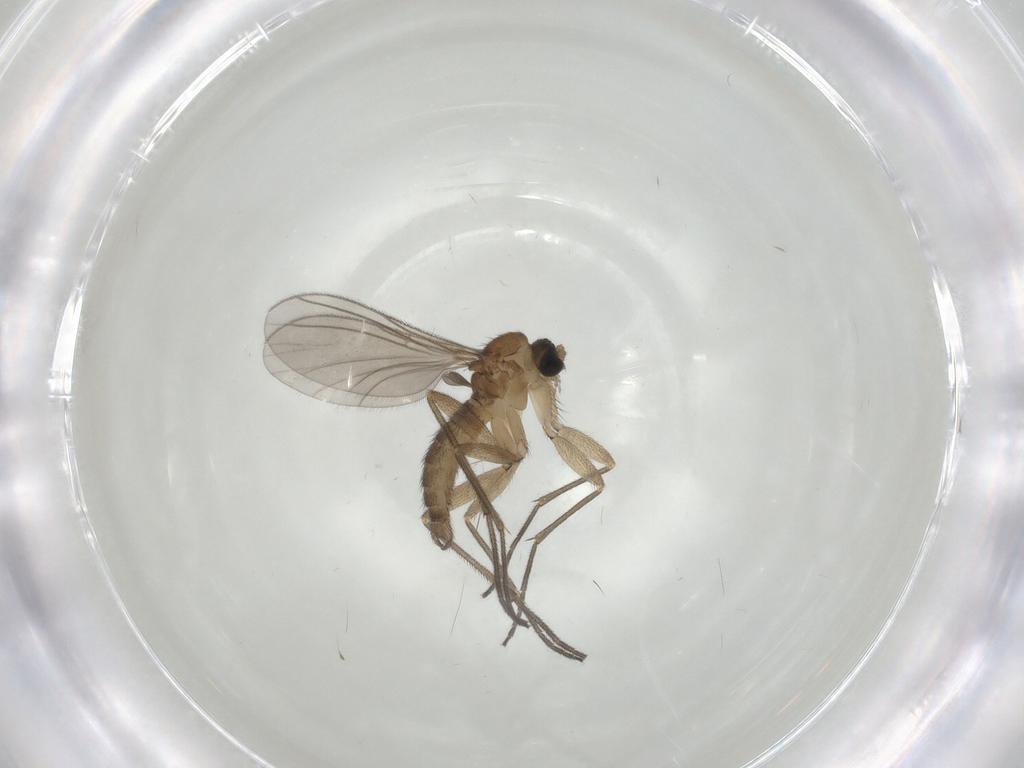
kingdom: Animalia
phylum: Arthropoda
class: Insecta
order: Diptera
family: Sciaridae
